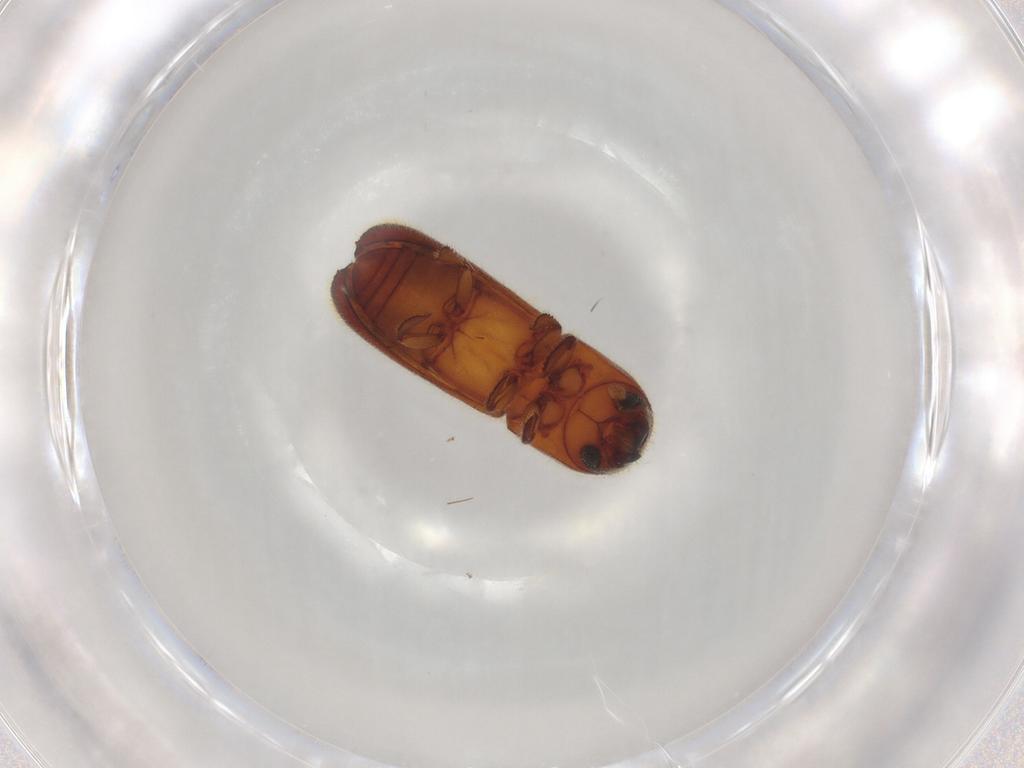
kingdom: Animalia
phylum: Arthropoda
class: Insecta
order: Coleoptera
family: Curculionidae
